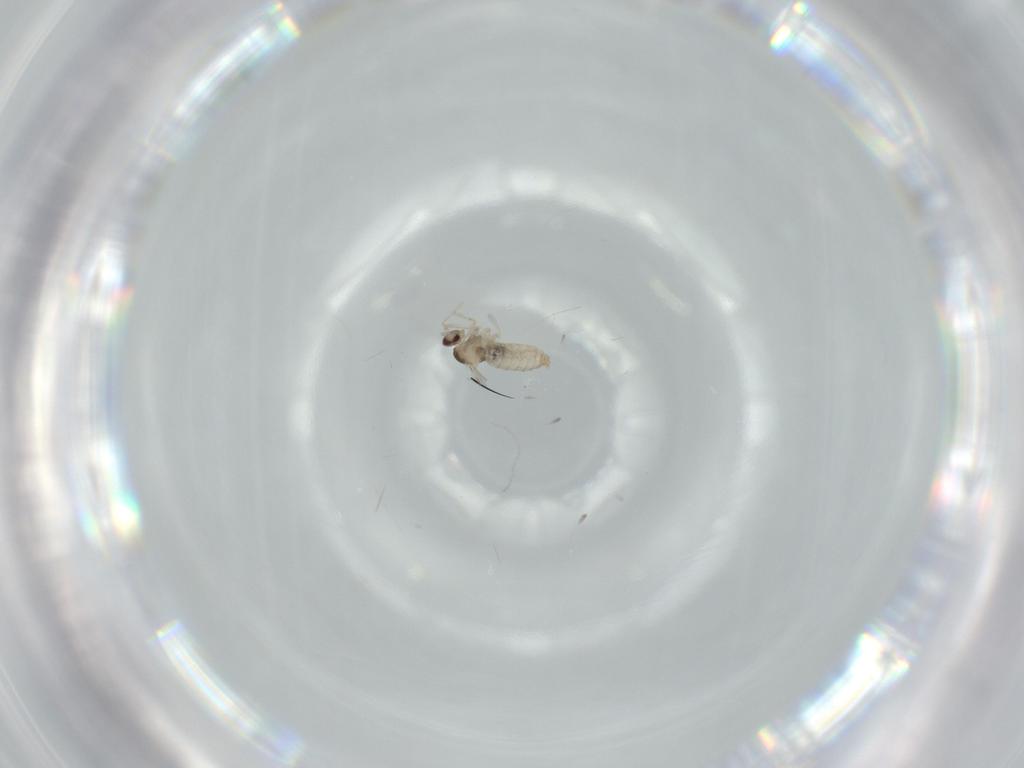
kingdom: Animalia
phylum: Arthropoda
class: Insecta
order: Diptera
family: Cecidomyiidae
